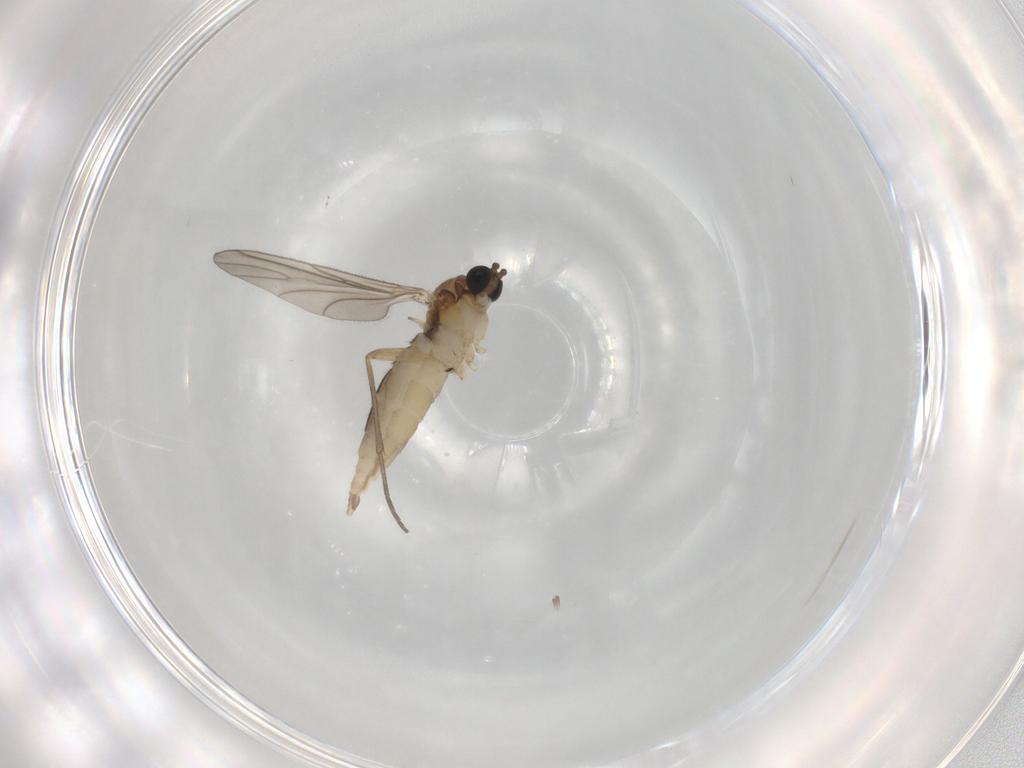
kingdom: Animalia
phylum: Arthropoda
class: Insecta
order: Diptera
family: Sciaridae
